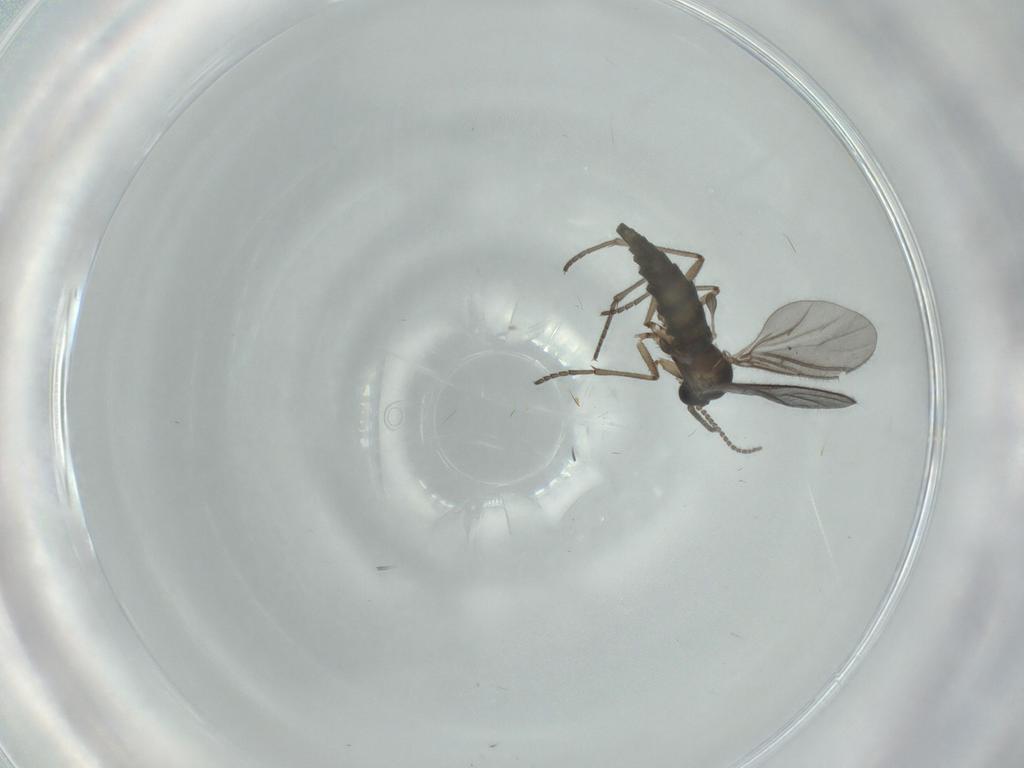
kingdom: Animalia
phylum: Arthropoda
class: Insecta
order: Diptera
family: Sciaridae
